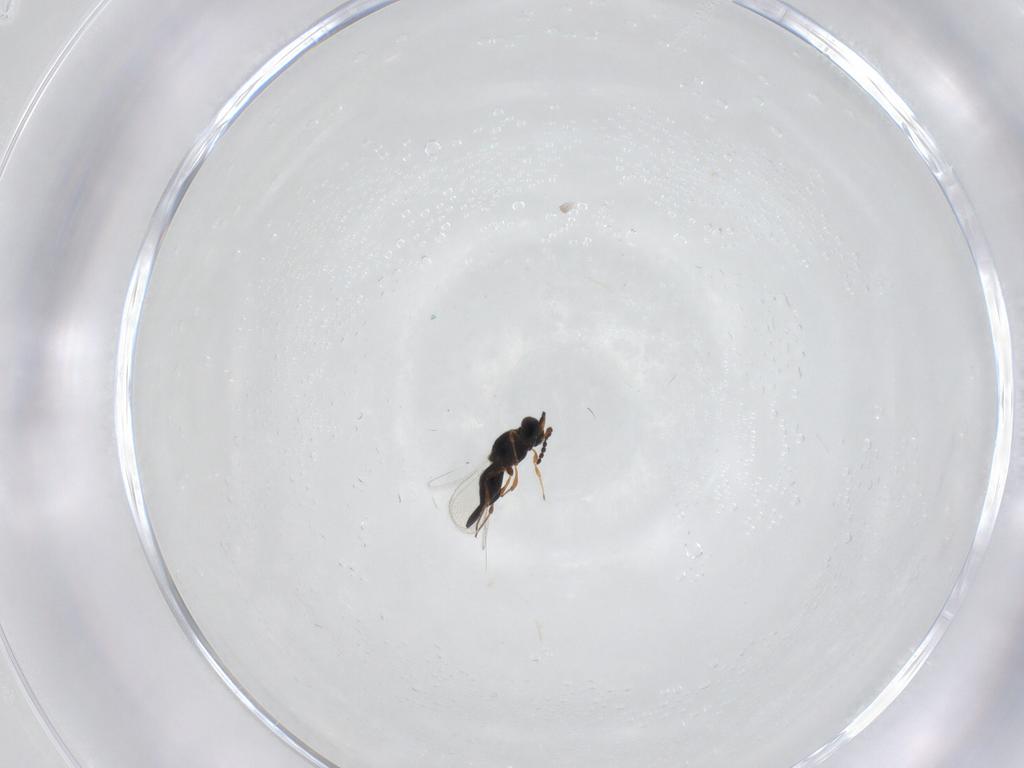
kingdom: Animalia
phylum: Arthropoda
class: Insecta
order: Hymenoptera
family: Platygastridae
